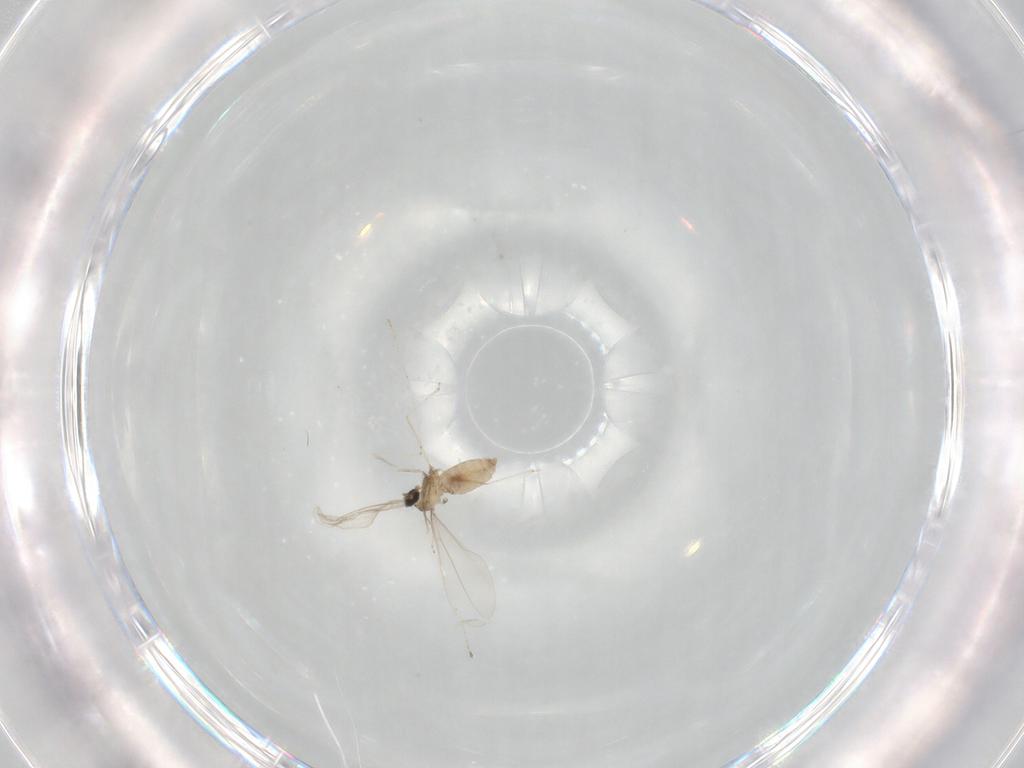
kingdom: Animalia
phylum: Arthropoda
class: Insecta
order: Diptera
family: Cecidomyiidae
